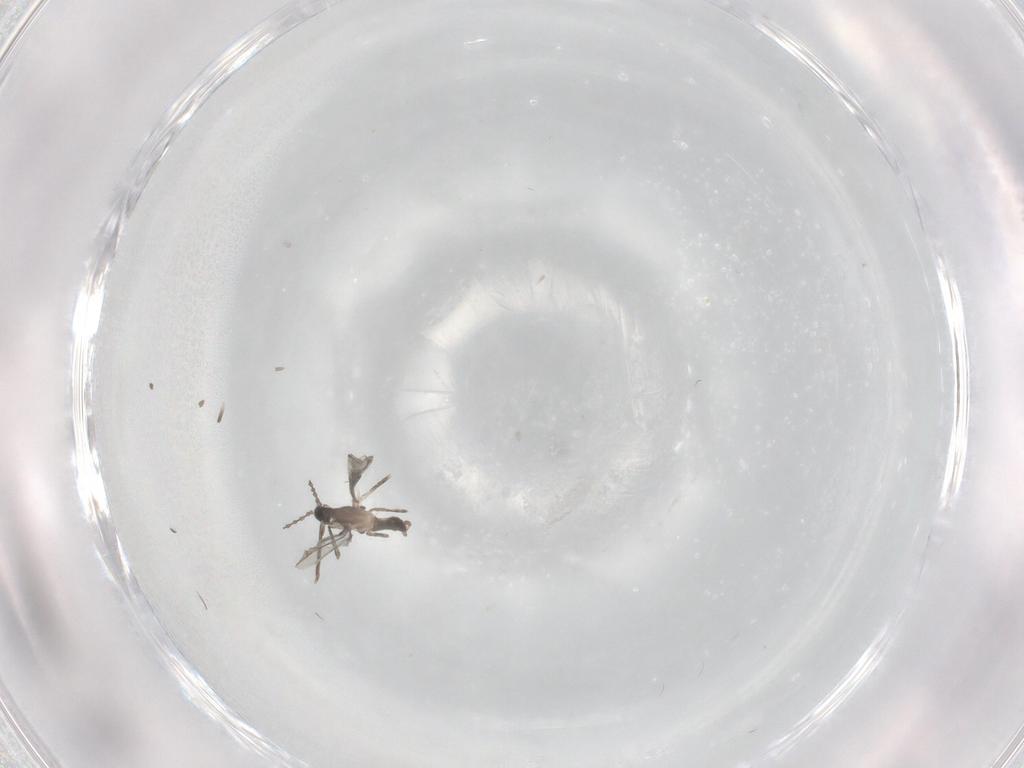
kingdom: Animalia
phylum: Arthropoda
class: Insecta
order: Diptera
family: Cecidomyiidae
